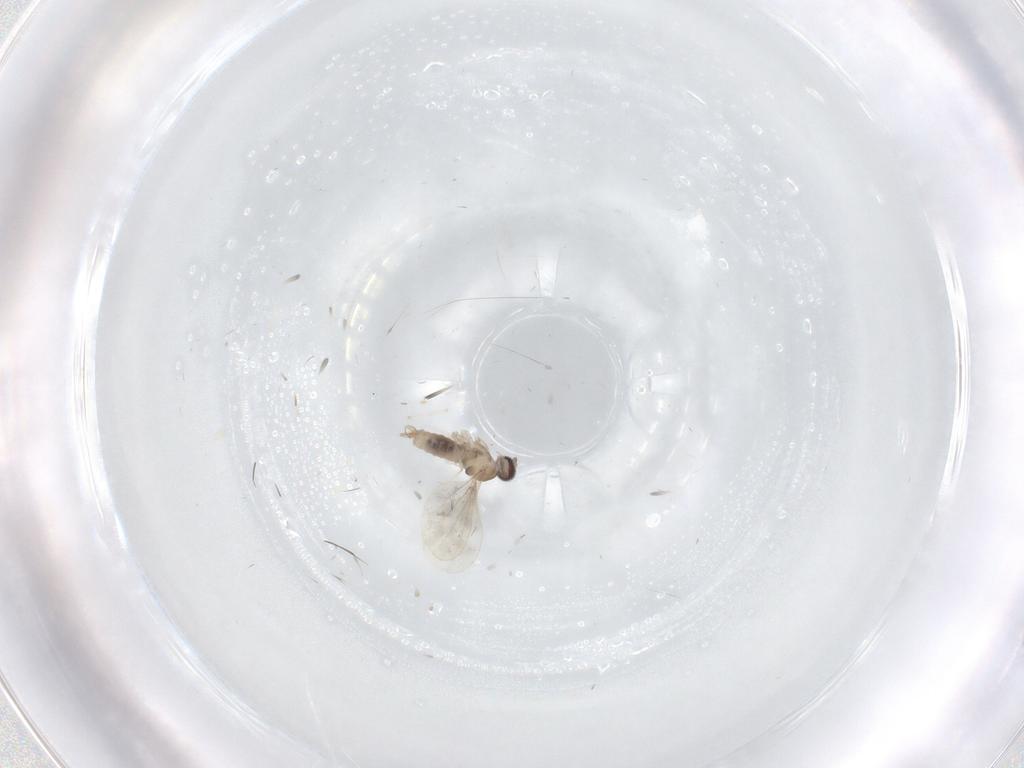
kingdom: Animalia
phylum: Arthropoda
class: Insecta
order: Diptera
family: Cecidomyiidae
